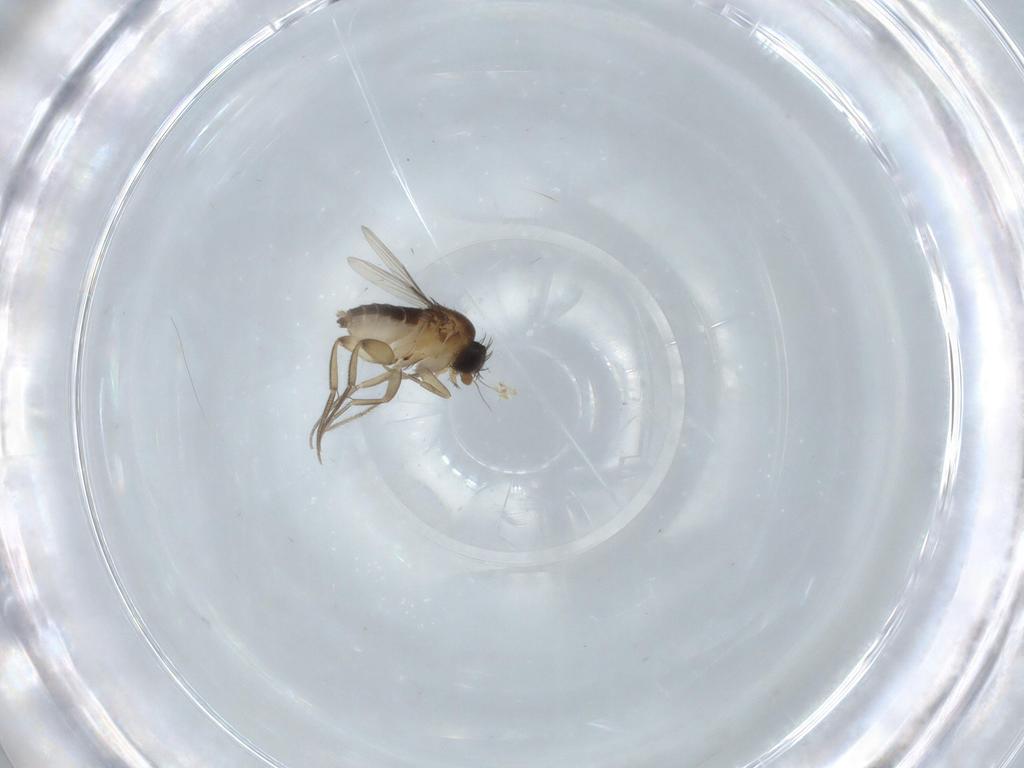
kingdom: Animalia
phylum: Arthropoda
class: Insecta
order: Diptera
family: Phoridae
